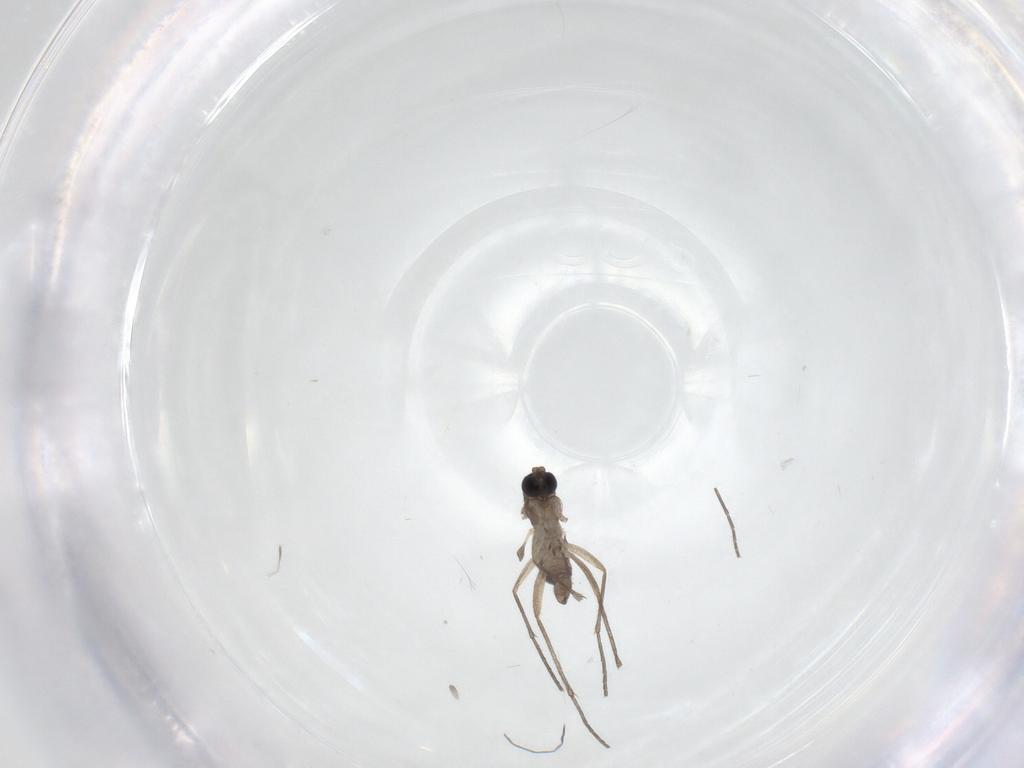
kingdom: Animalia
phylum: Arthropoda
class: Insecta
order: Diptera
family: Sciaridae
